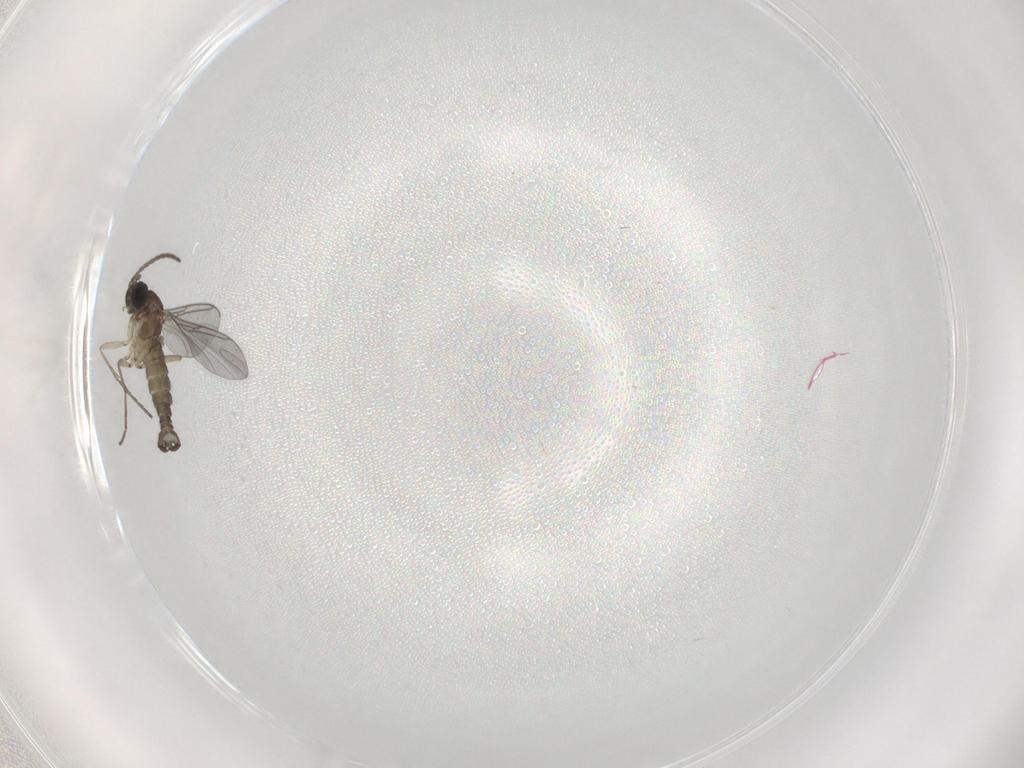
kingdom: Animalia
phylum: Arthropoda
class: Insecta
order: Diptera
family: Sciaridae
